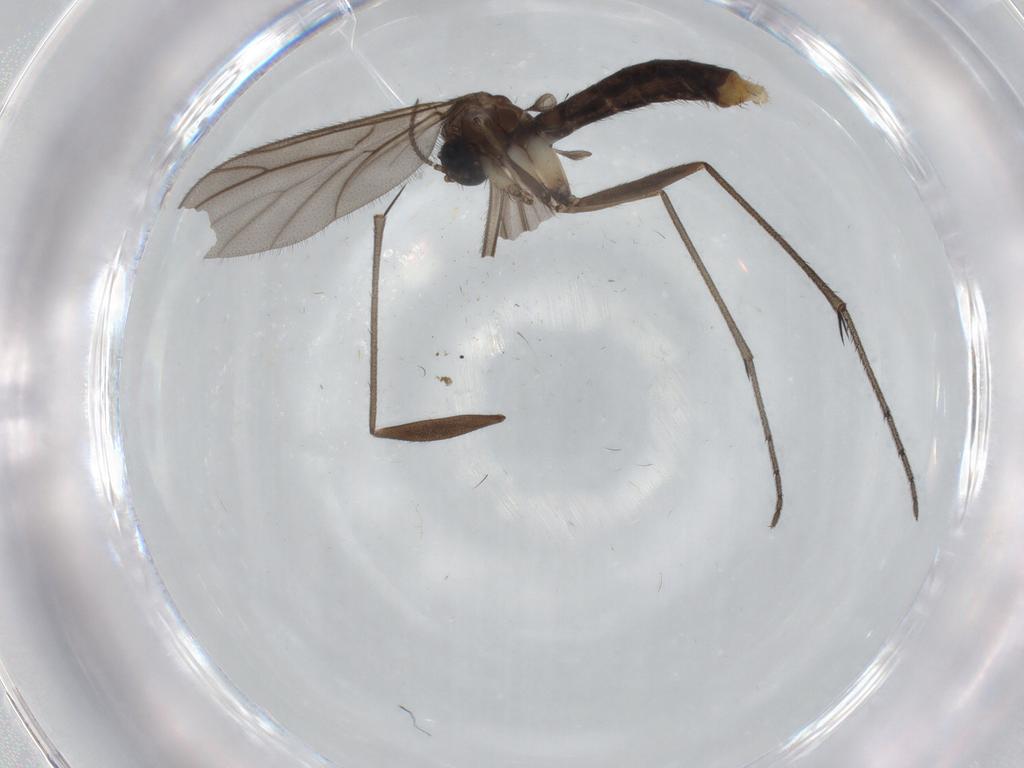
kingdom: Animalia
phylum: Arthropoda
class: Insecta
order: Diptera
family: Ditomyiidae
